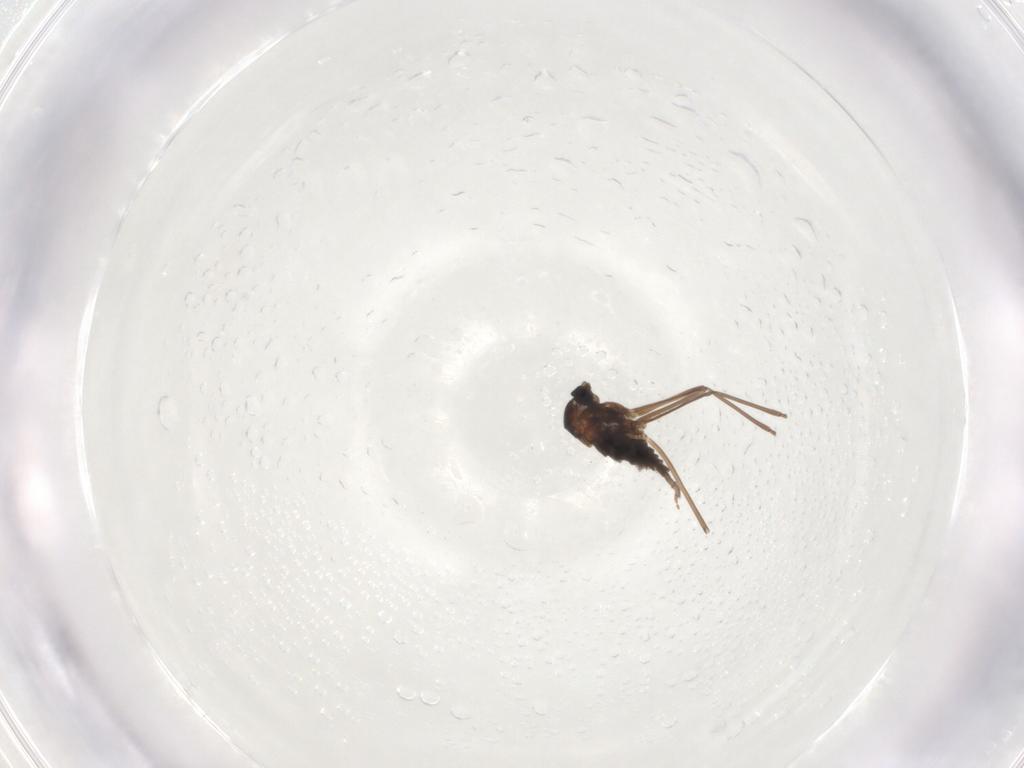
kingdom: Animalia
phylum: Arthropoda
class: Insecta
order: Diptera
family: Cecidomyiidae
